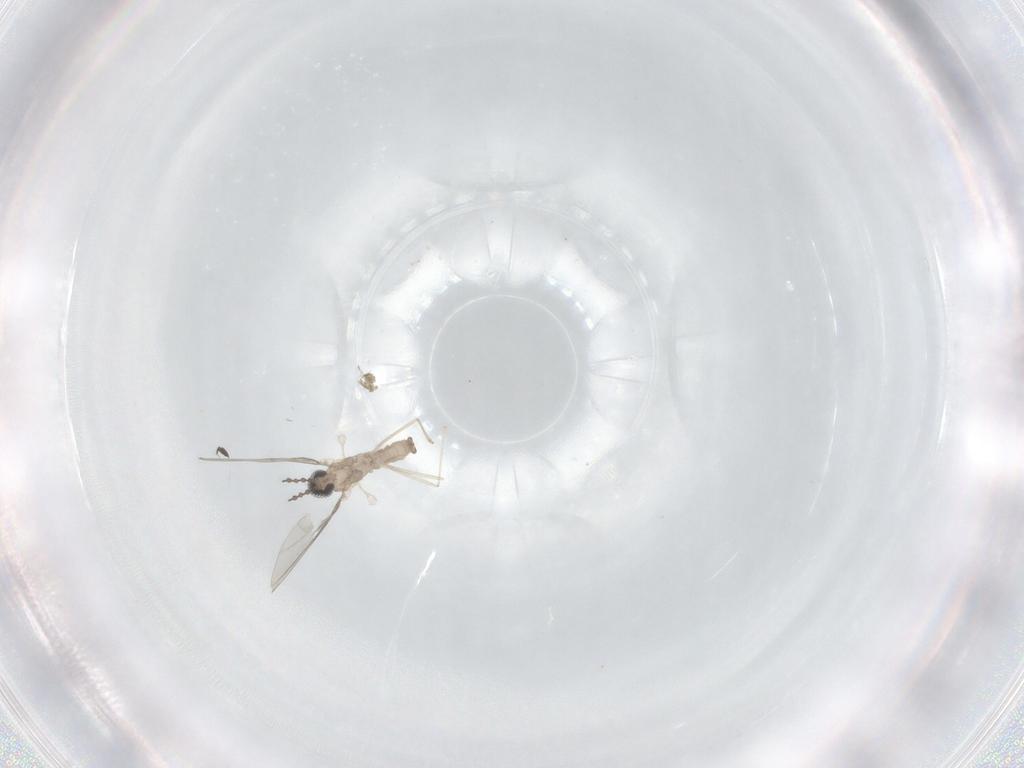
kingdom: Animalia
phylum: Arthropoda
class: Insecta
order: Diptera
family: Cecidomyiidae
